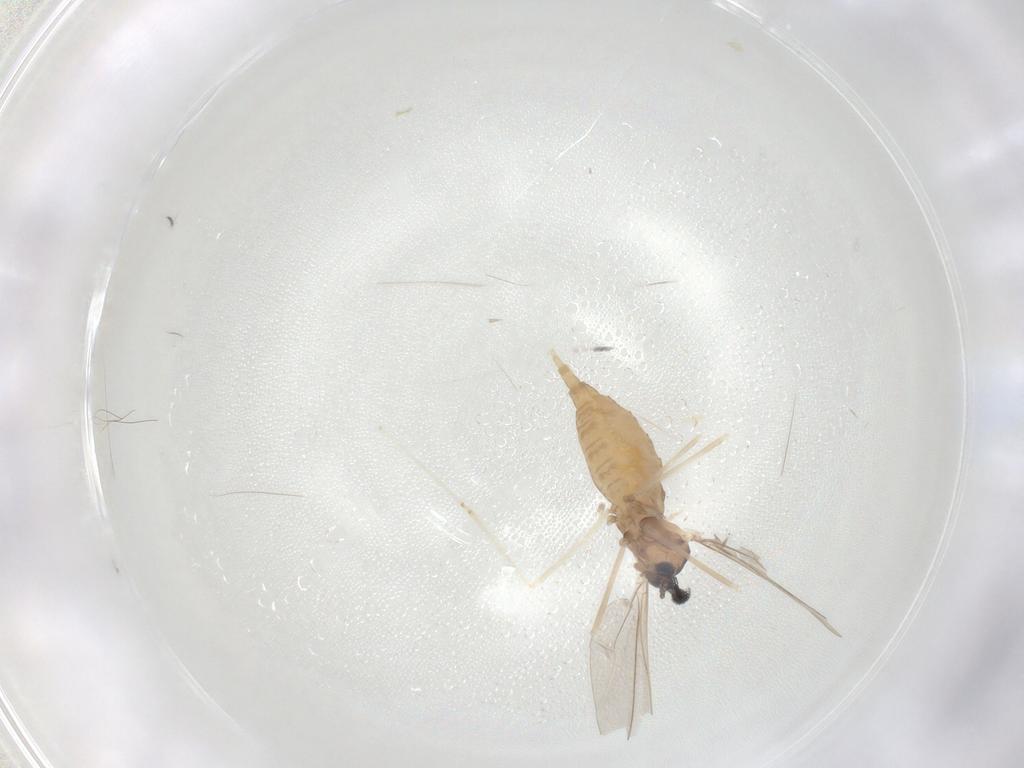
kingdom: Animalia
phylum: Arthropoda
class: Insecta
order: Diptera
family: Cecidomyiidae
